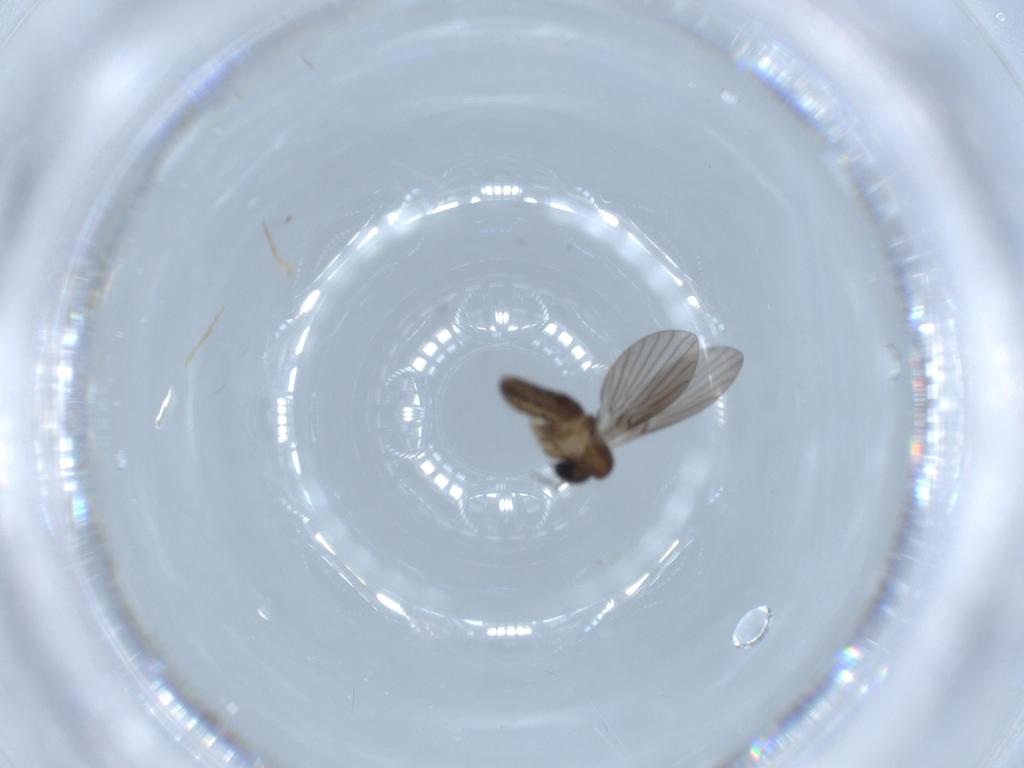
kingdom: Animalia
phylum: Arthropoda
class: Insecta
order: Diptera
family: Psychodidae
